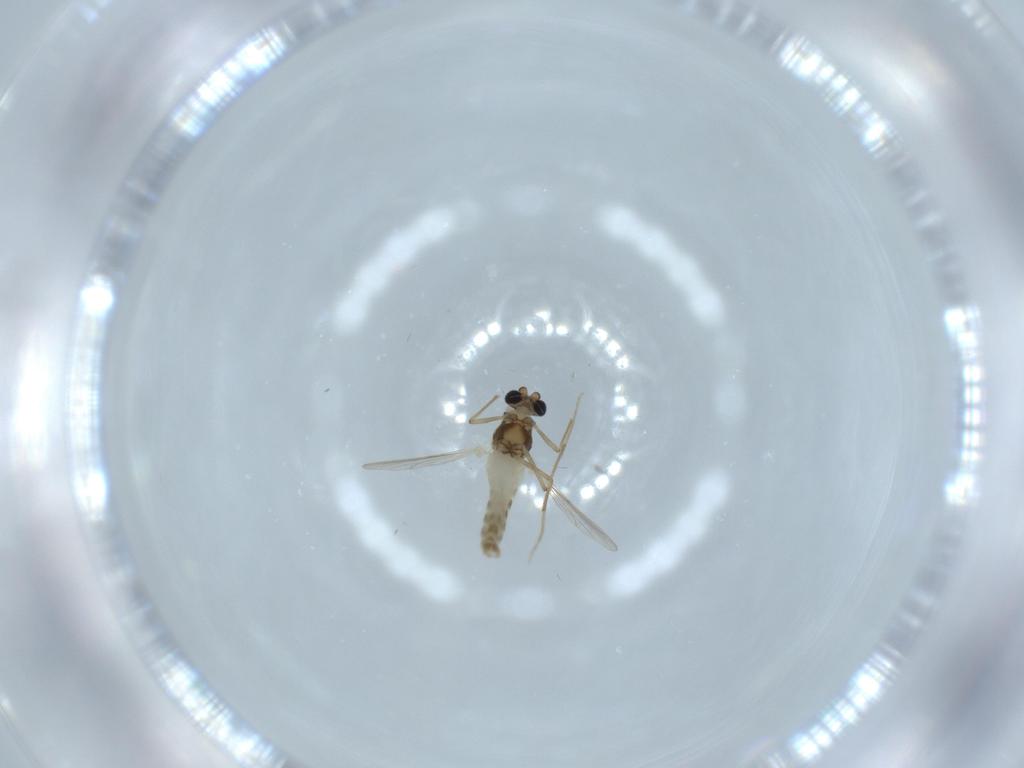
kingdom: Animalia
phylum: Arthropoda
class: Insecta
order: Diptera
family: Chironomidae
